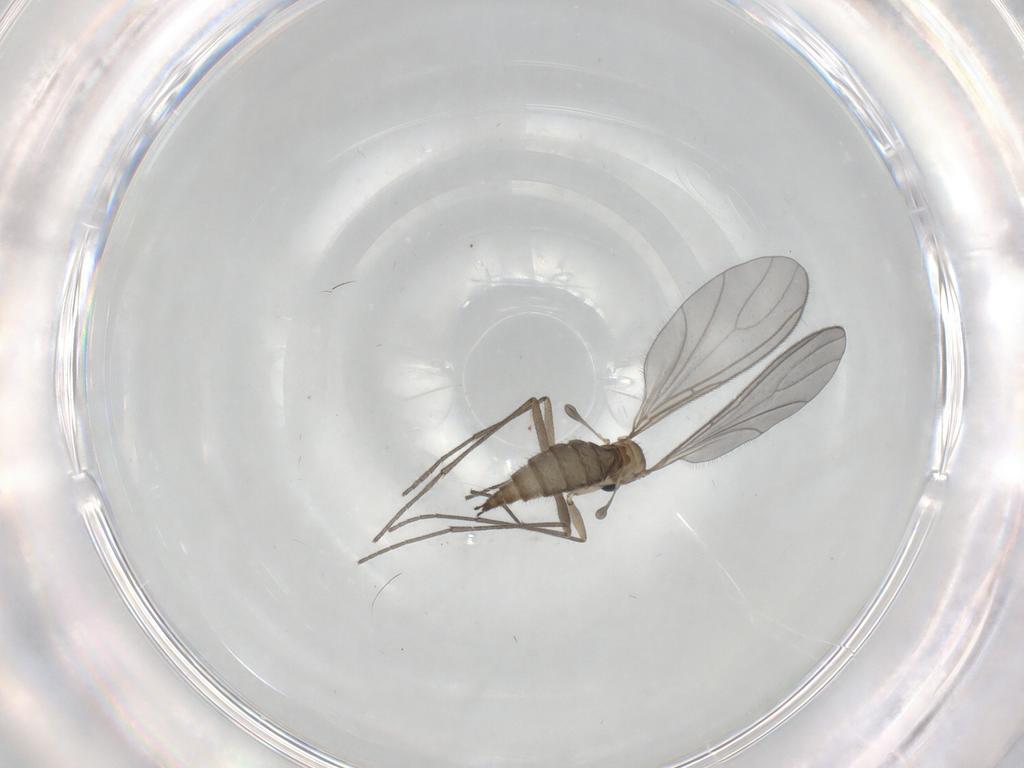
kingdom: Animalia
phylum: Arthropoda
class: Insecta
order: Diptera
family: Sciaridae
